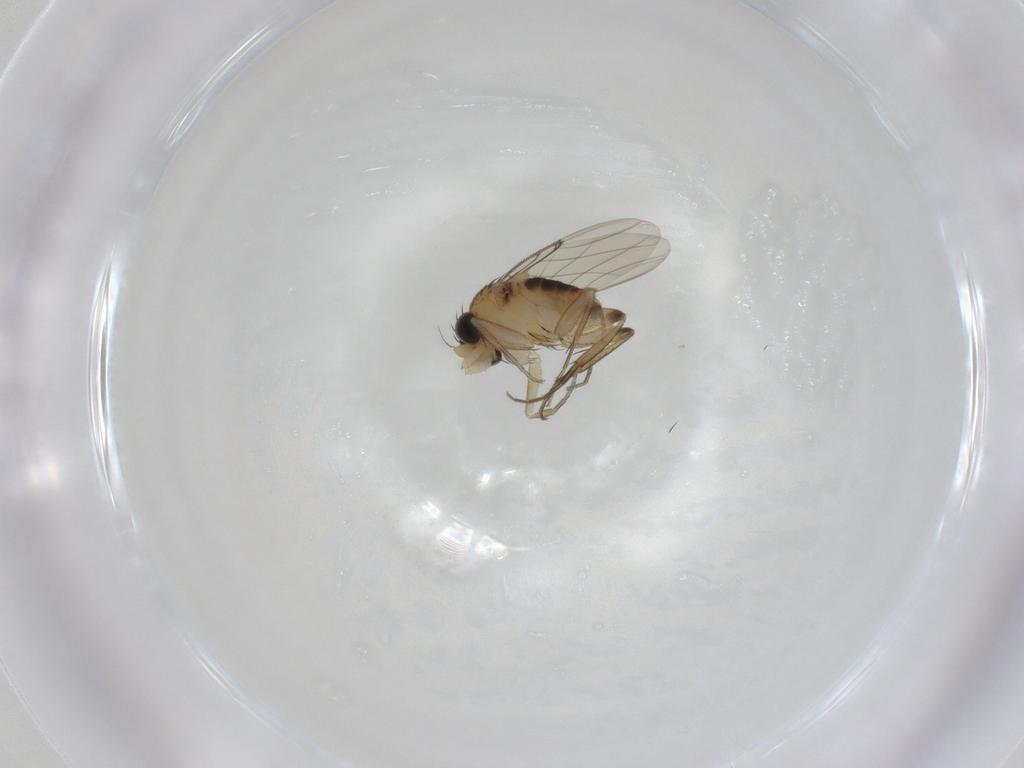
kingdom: Animalia
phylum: Arthropoda
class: Insecta
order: Diptera
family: Phoridae
